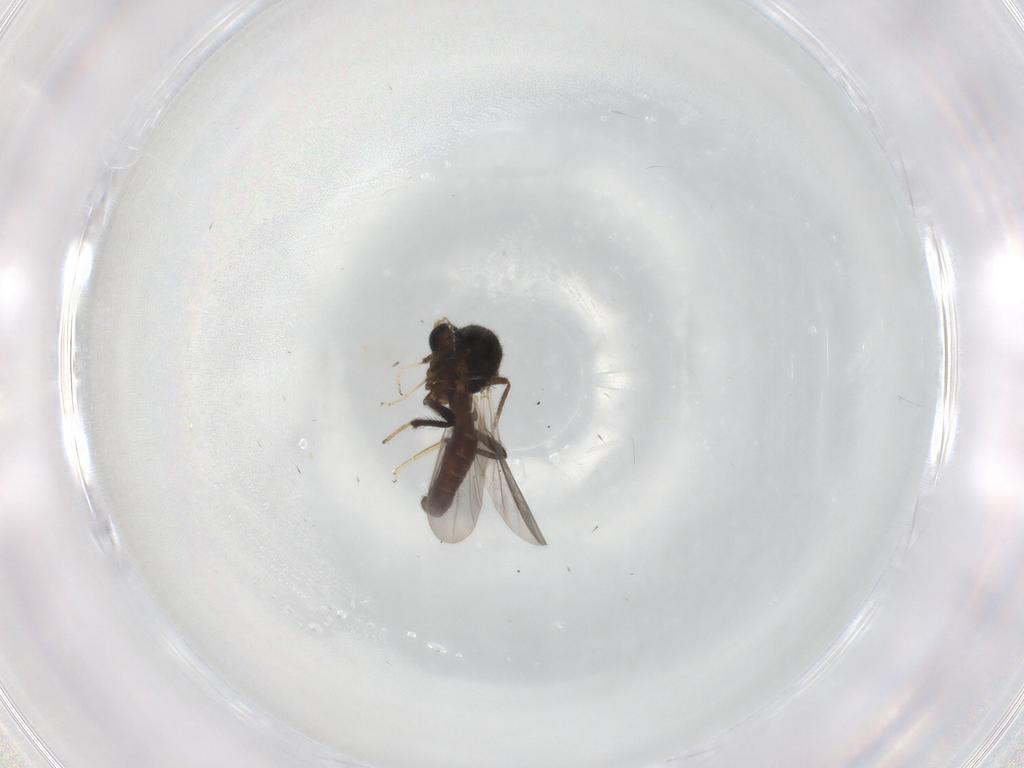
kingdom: Animalia
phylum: Arthropoda
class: Insecta
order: Diptera
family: Ceratopogonidae
